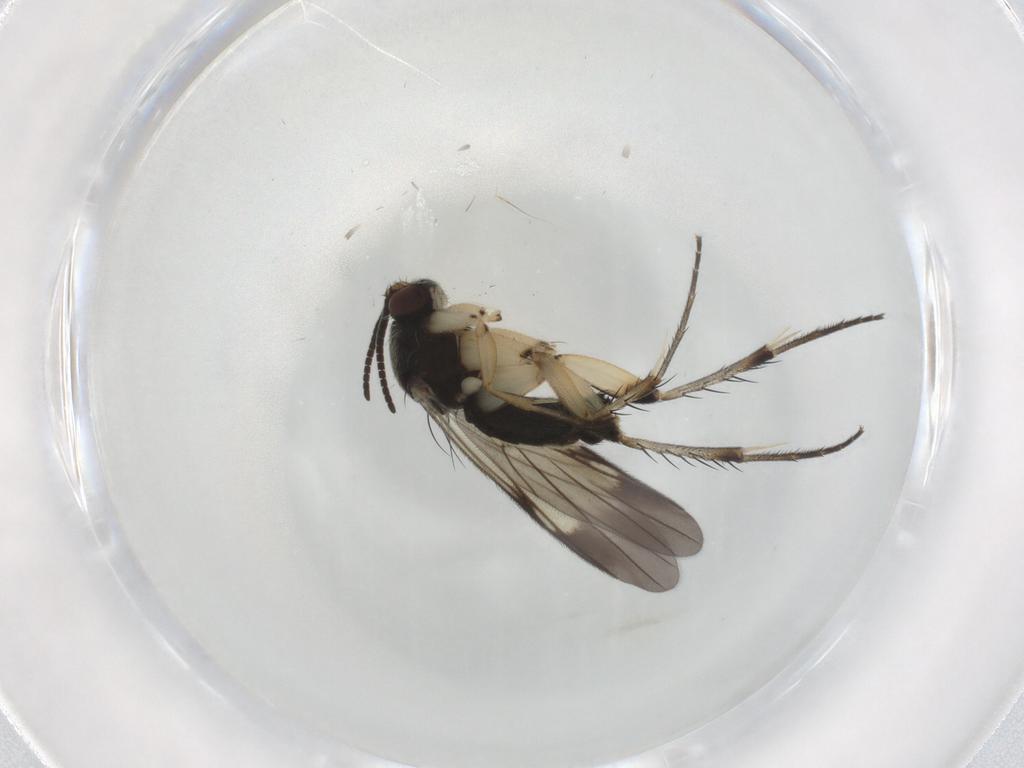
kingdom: Animalia
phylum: Arthropoda
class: Insecta
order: Diptera
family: Mycetophilidae
